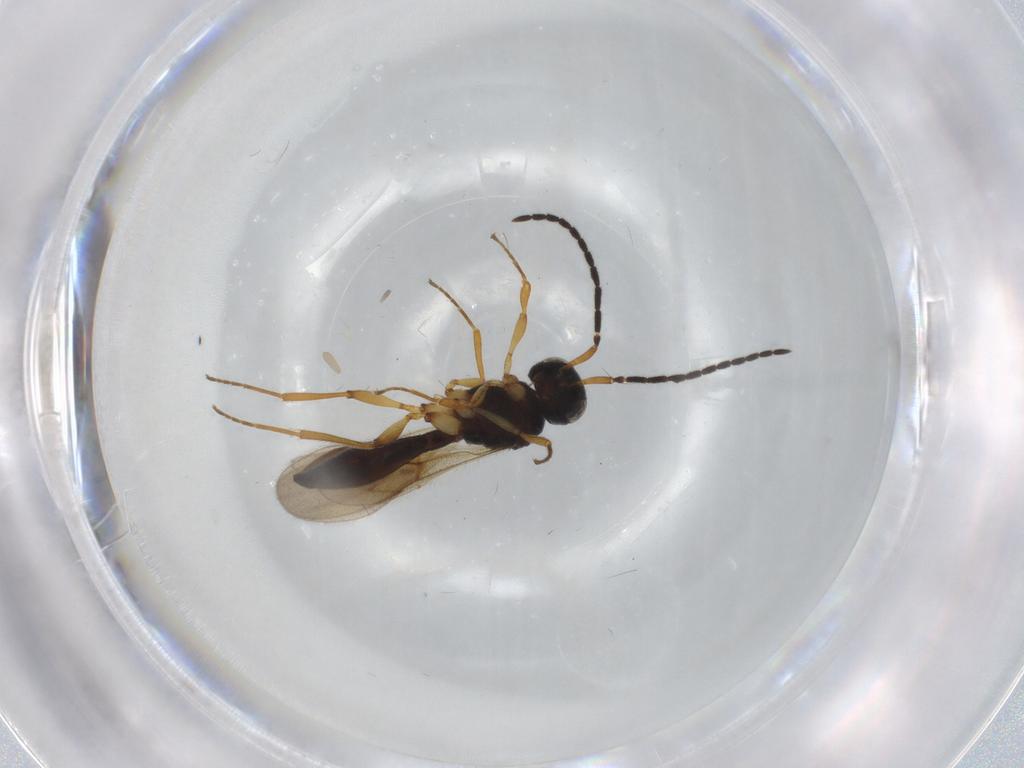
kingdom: Animalia
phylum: Arthropoda
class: Insecta
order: Hymenoptera
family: Scelionidae
